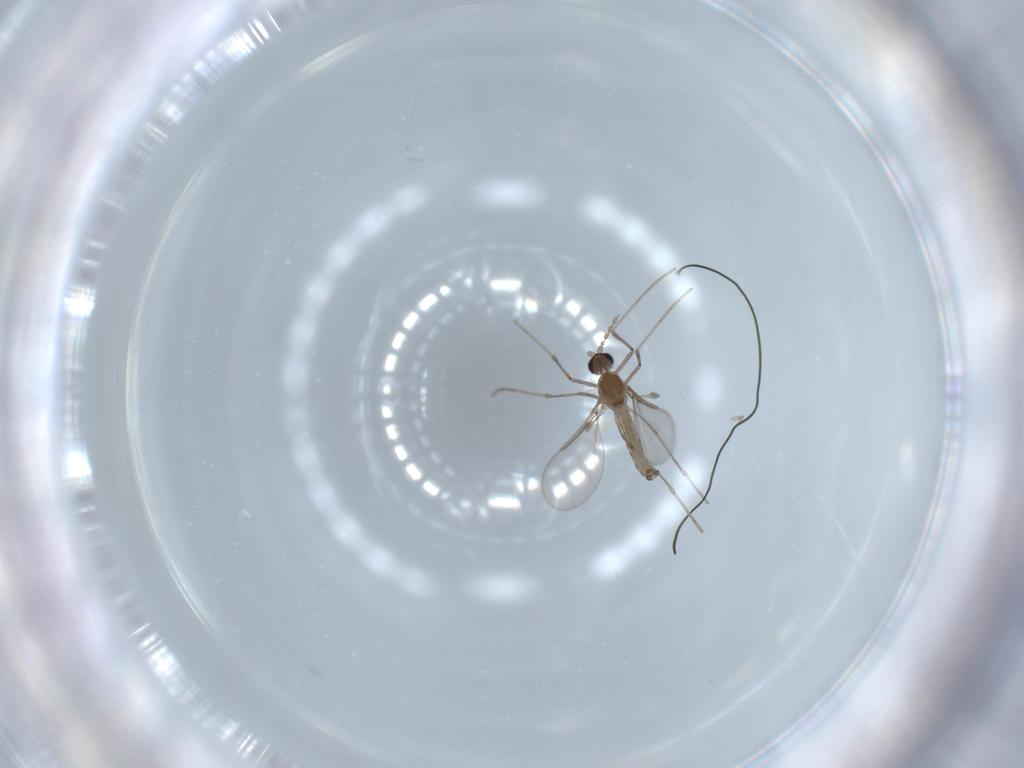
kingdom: Animalia
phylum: Arthropoda
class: Insecta
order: Diptera
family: Cecidomyiidae
